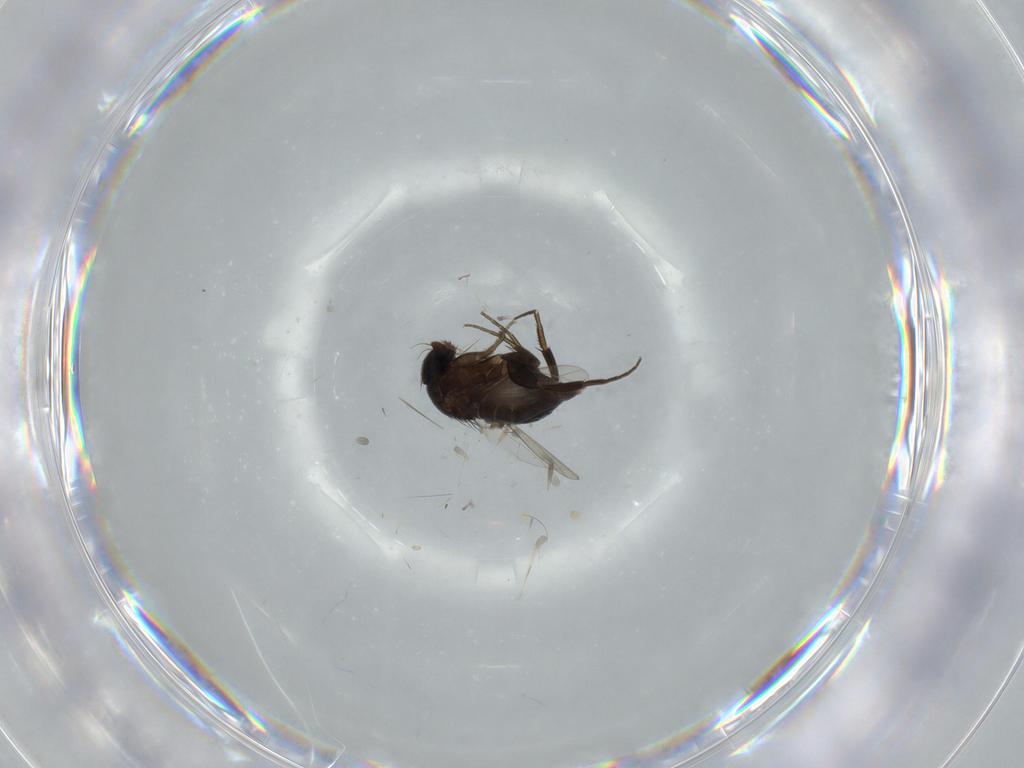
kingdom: Animalia
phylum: Arthropoda
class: Insecta
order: Diptera
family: Phoridae
